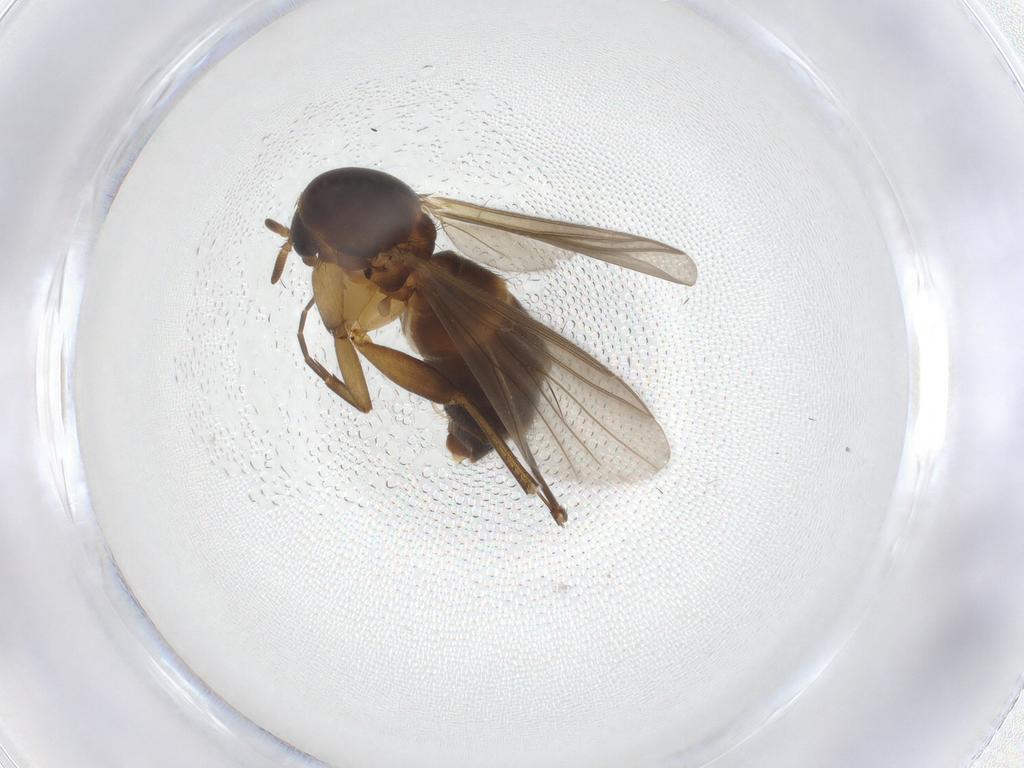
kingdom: Animalia
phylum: Arthropoda
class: Insecta
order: Diptera
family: Mycetophilidae
